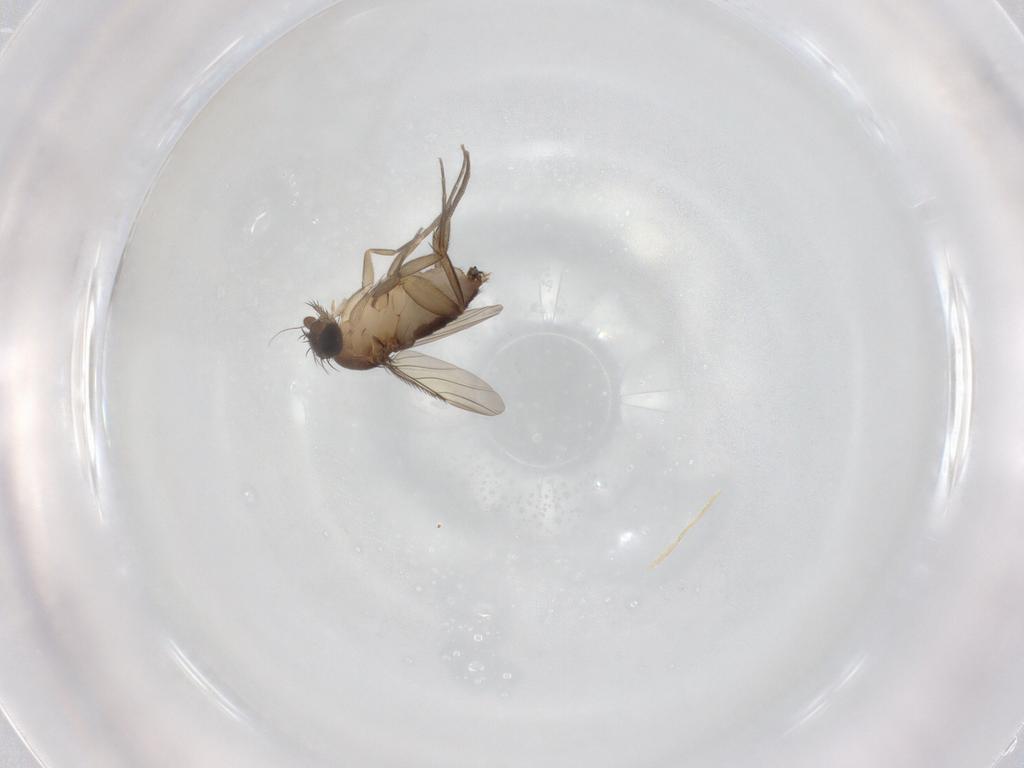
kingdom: Animalia
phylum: Arthropoda
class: Insecta
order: Diptera
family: Phoridae
